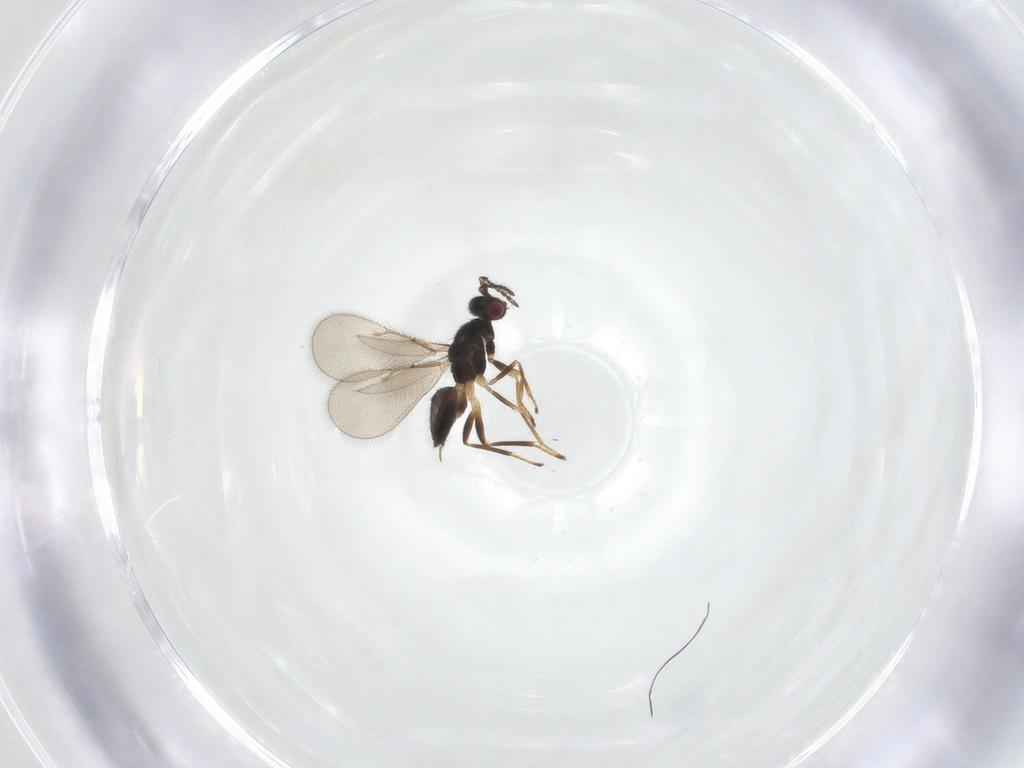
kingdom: Animalia
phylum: Arthropoda
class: Insecta
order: Hymenoptera
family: Eulophidae
